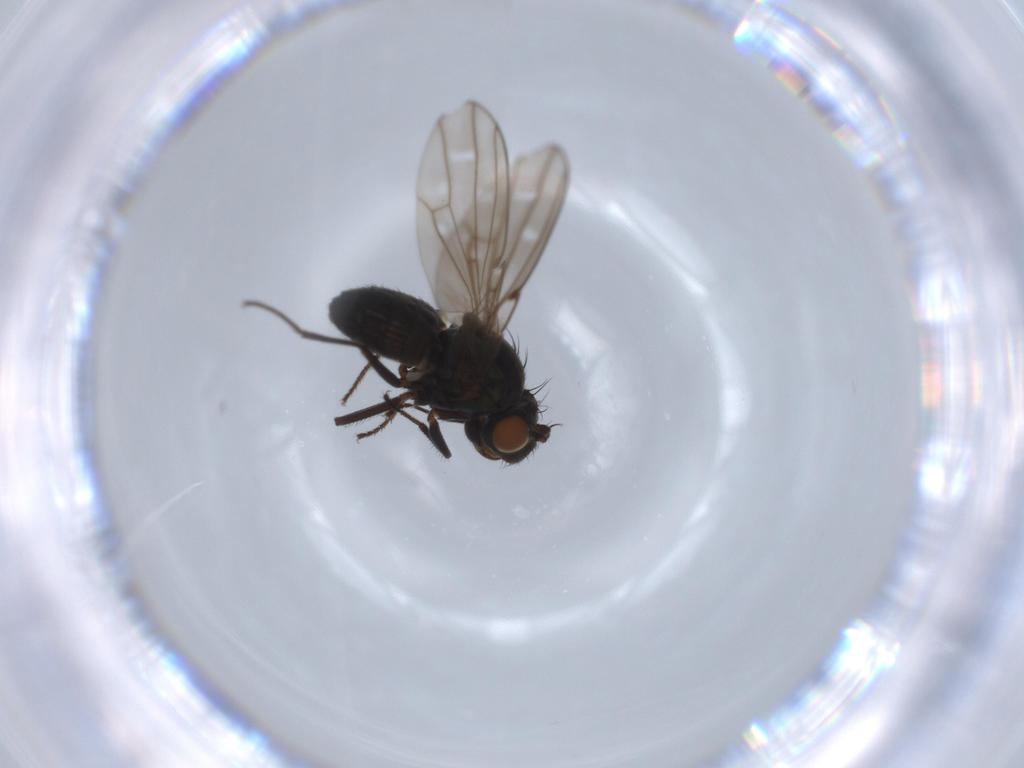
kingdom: Animalia
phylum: Arthropoda
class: Insecta
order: Diptera
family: Ephydridae
